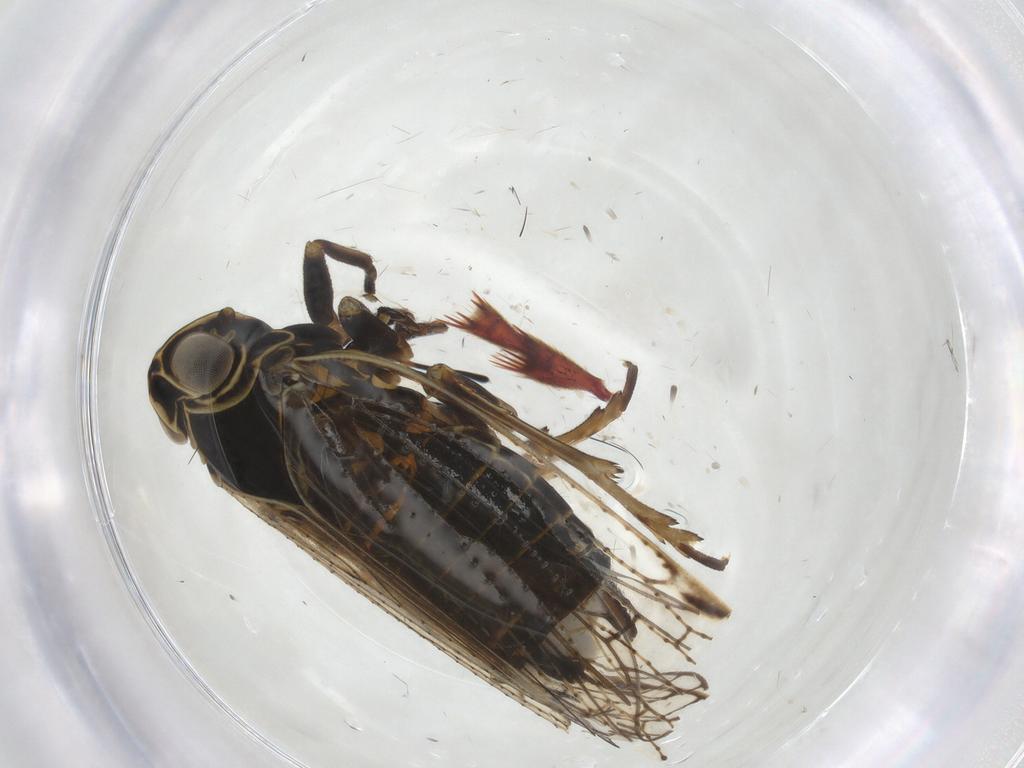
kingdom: Animalia
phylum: Arthropoda
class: Insecta
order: Hemiptera
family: Cixiidae
